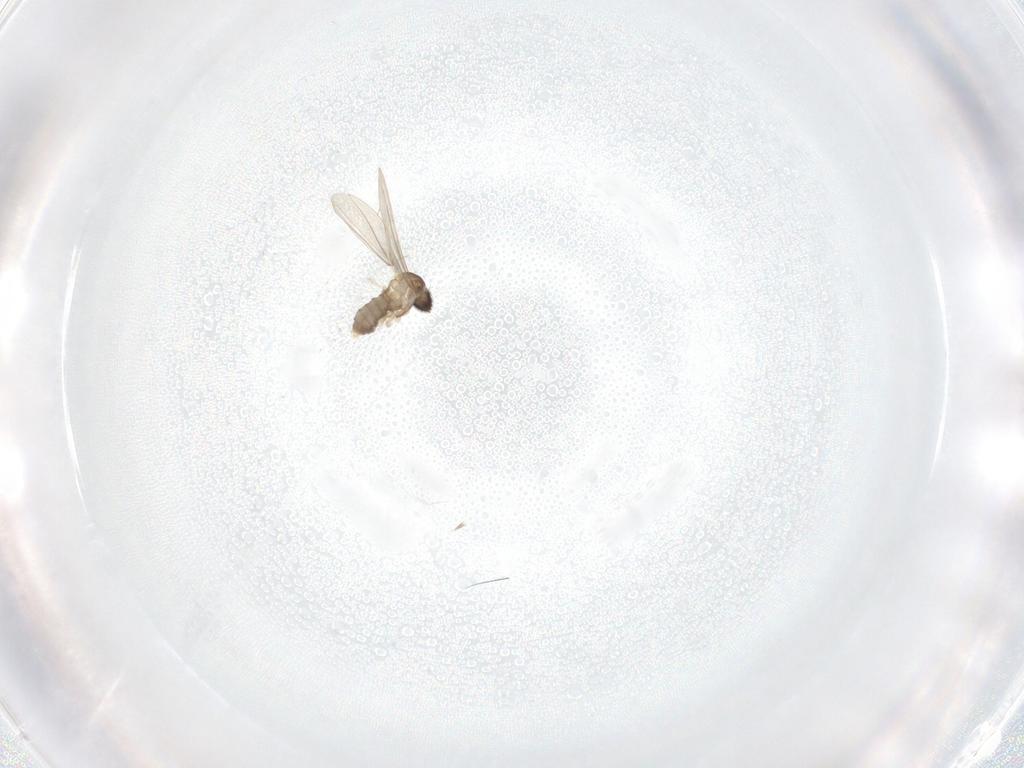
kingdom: Animalia
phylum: Arthropoda
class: Insecta
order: Diptera
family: Cecidomyiidae
